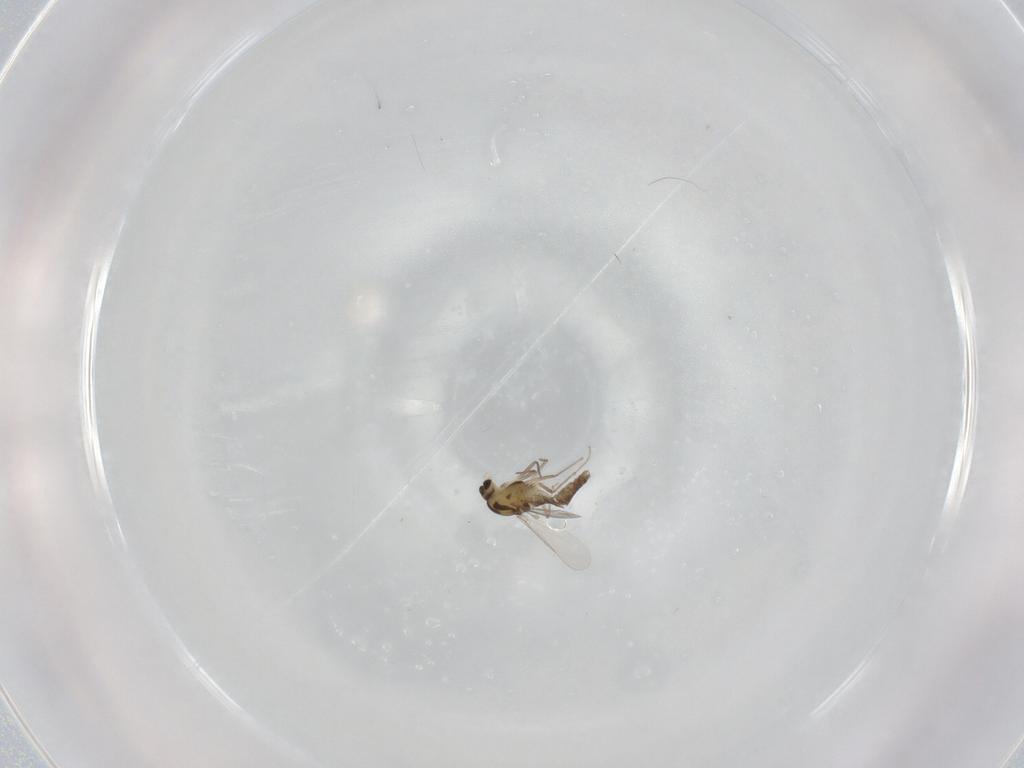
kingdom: Animalia
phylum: Arthropoda
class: Insecta
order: Diptera
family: Chironomidae
